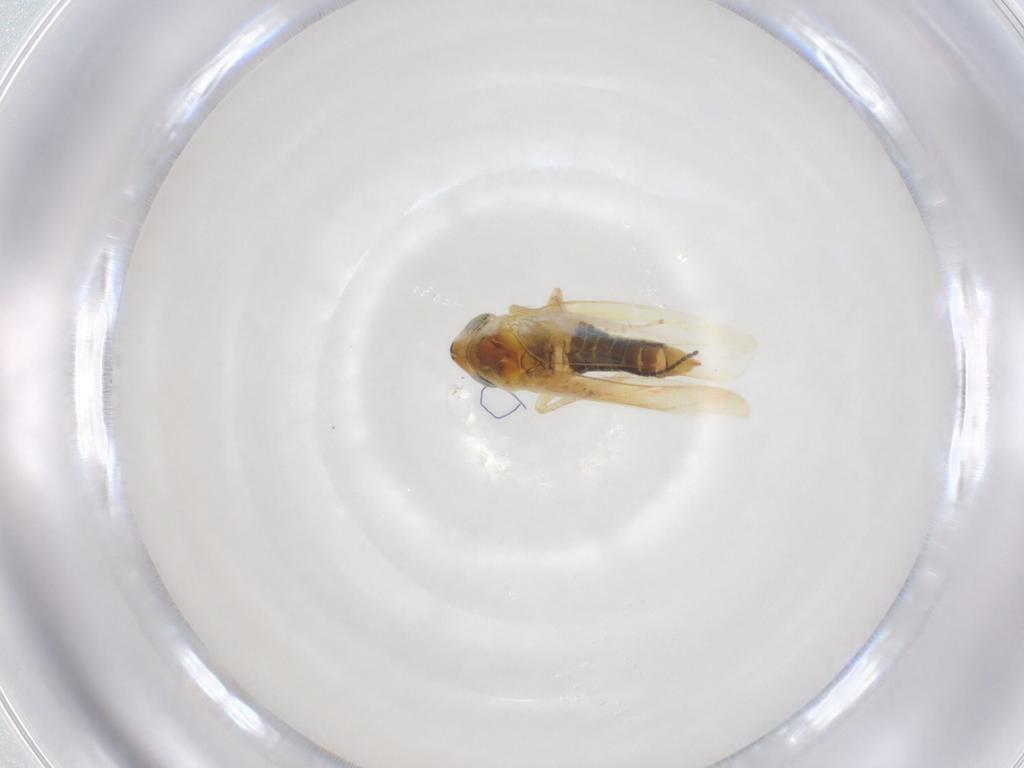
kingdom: Animalia
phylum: Arthropoda
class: Insecta
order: Hemiptera
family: Cicadellidae
